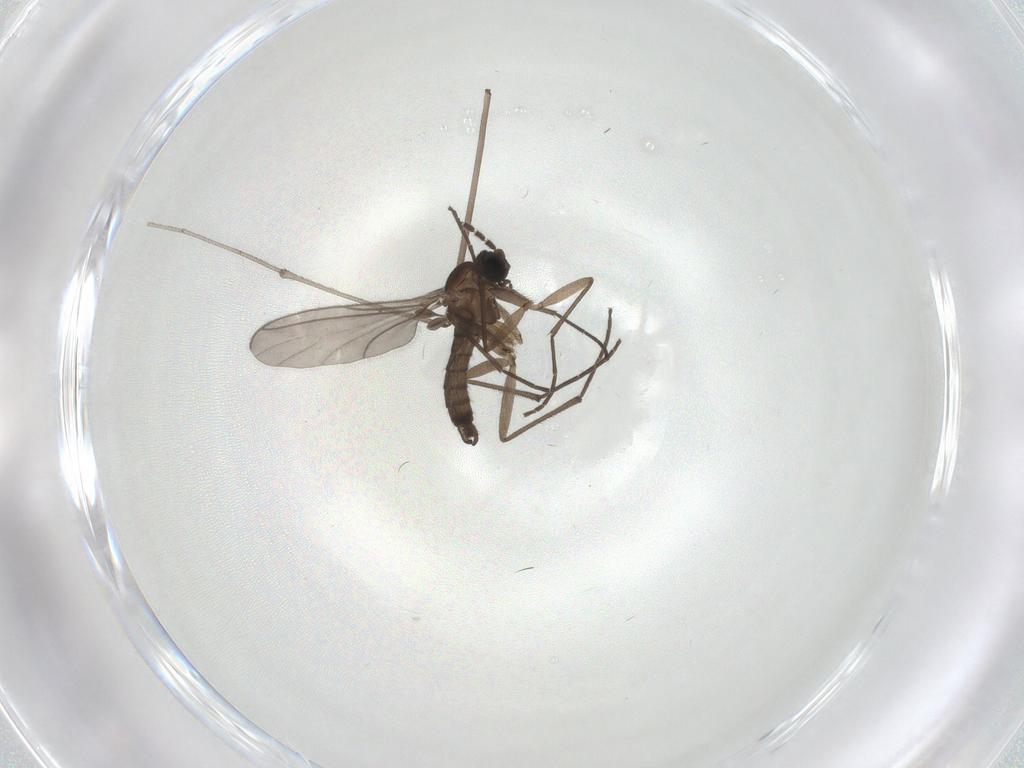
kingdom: Animalia
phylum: Arthropoda
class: Insecta
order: Diptera
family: Sciaridae
